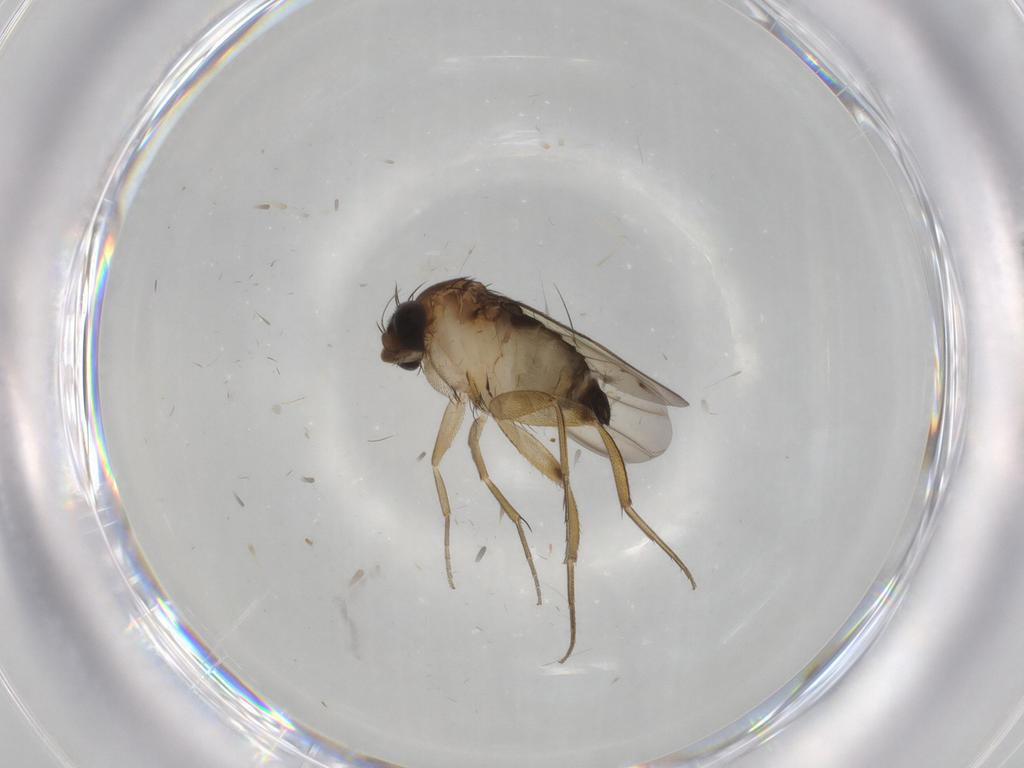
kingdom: Animalia
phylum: Arthropoda
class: Insecta
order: Diptera
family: Phoridae
